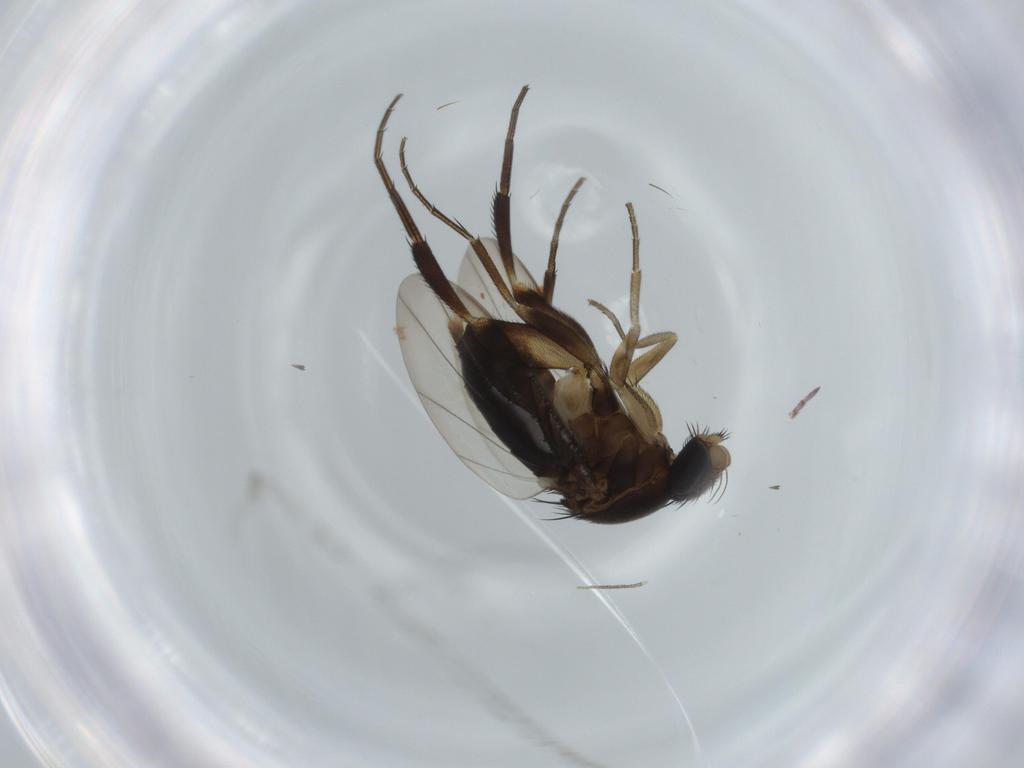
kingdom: Animalia
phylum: Arthropoda
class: Insecta
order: Diptera
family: Phoridae
